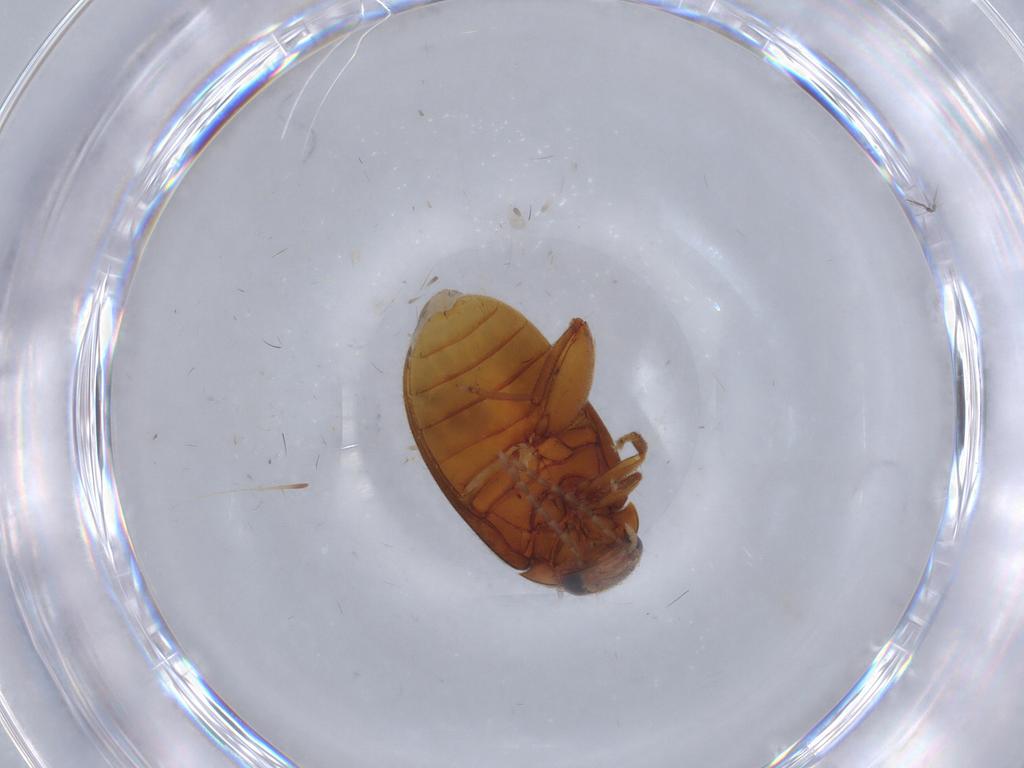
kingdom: Animalia
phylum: Arthropoda
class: Insecta
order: Coleoptera
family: Scirtidae
